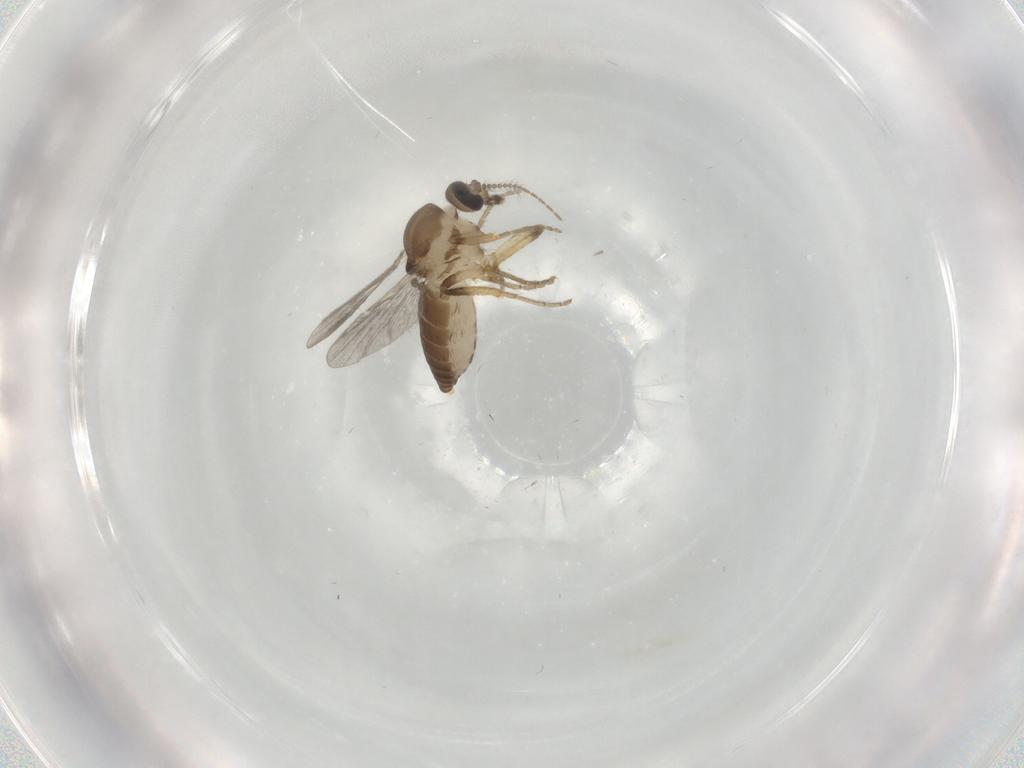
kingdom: Animalia
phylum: Arthropoda
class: Insecta
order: Diptera
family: Ceratopogonidae
